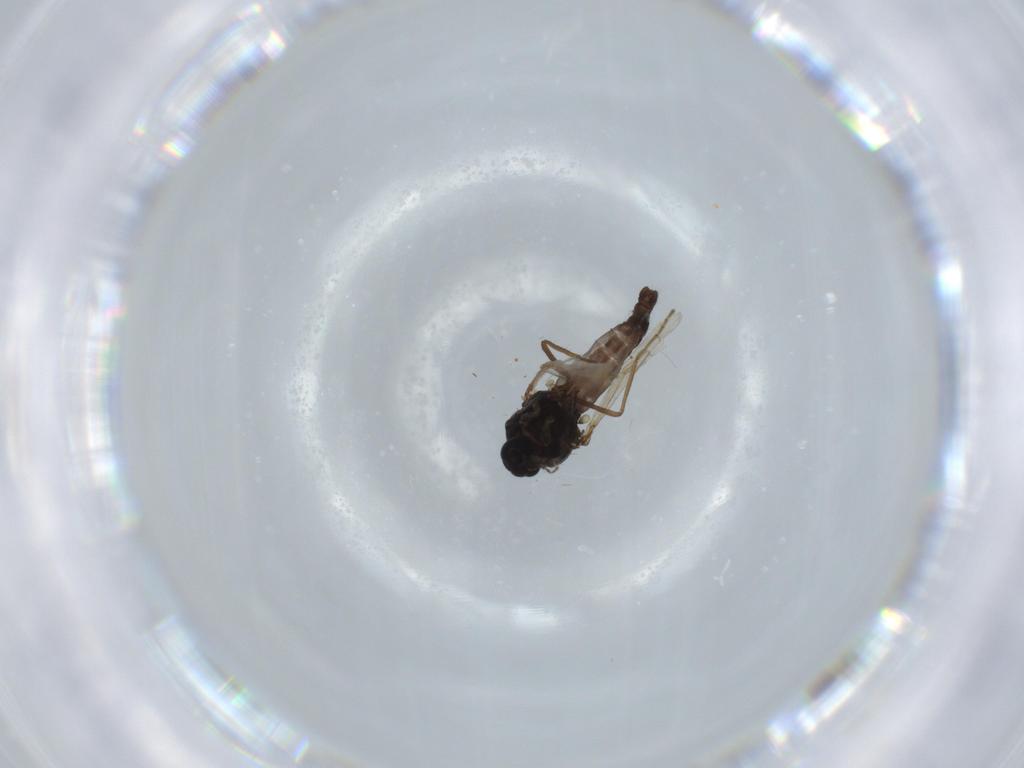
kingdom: Animalia
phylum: Arthropoda
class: Insecta
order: Diptera
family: Ceratopogonidae
